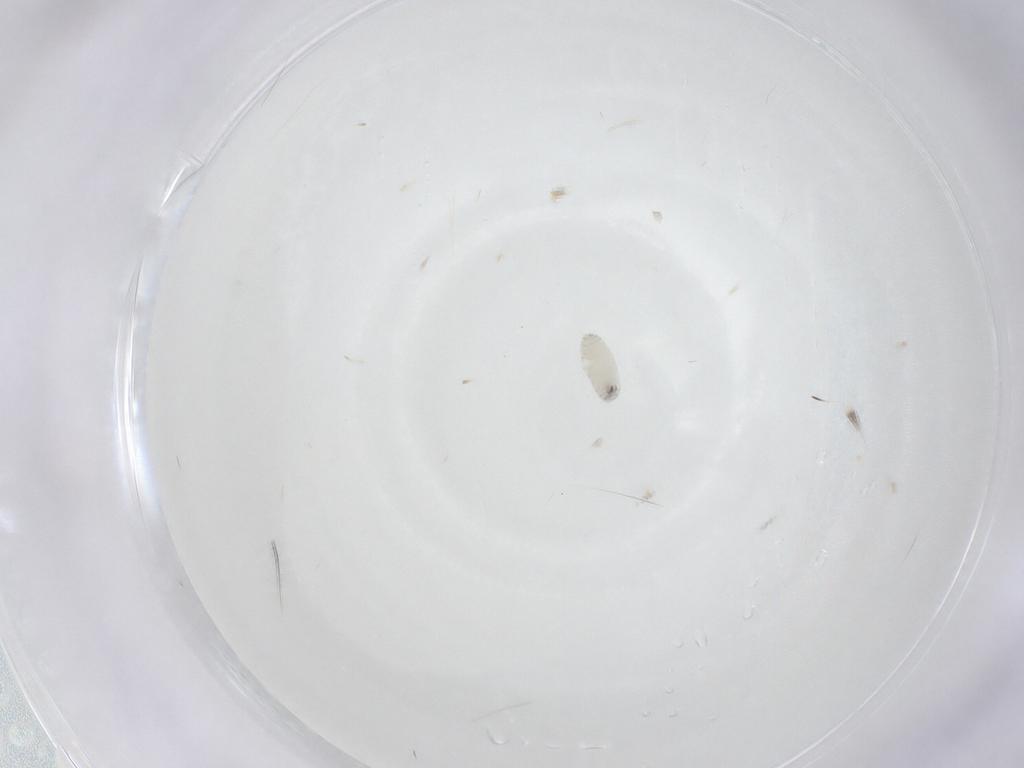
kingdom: Animalia
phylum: Arthropoda
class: Insecta
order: Diptera
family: Tachinidae
